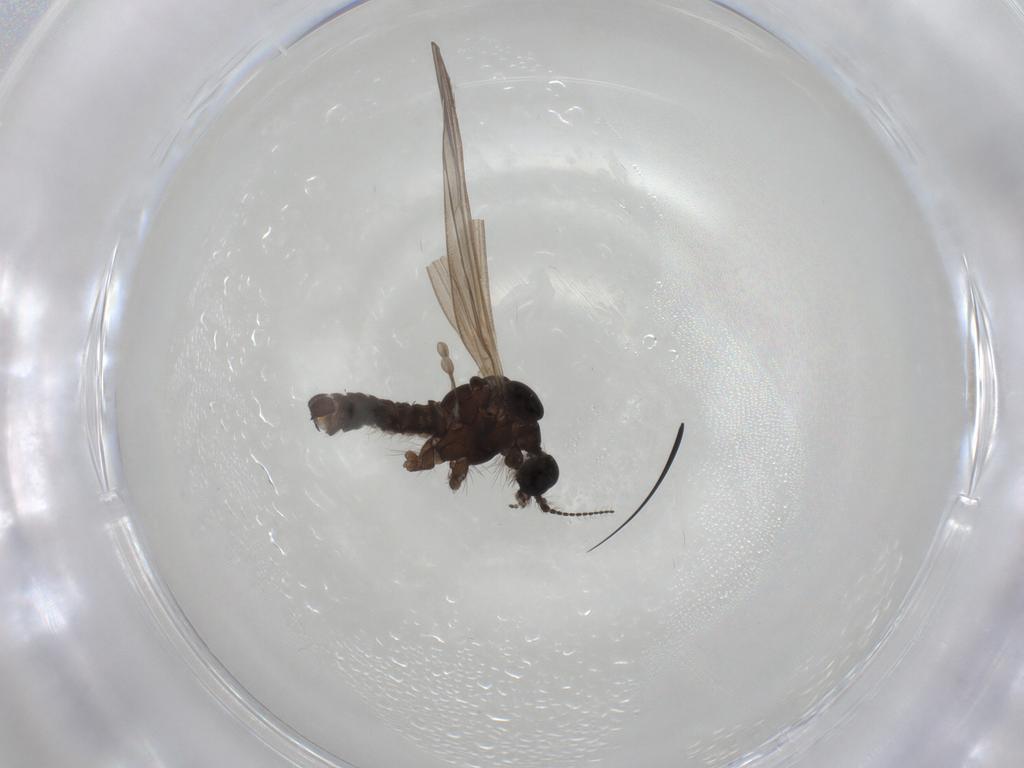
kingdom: Animalia
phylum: Arthropoda
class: Insecta
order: Diptera
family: Limoniidae
